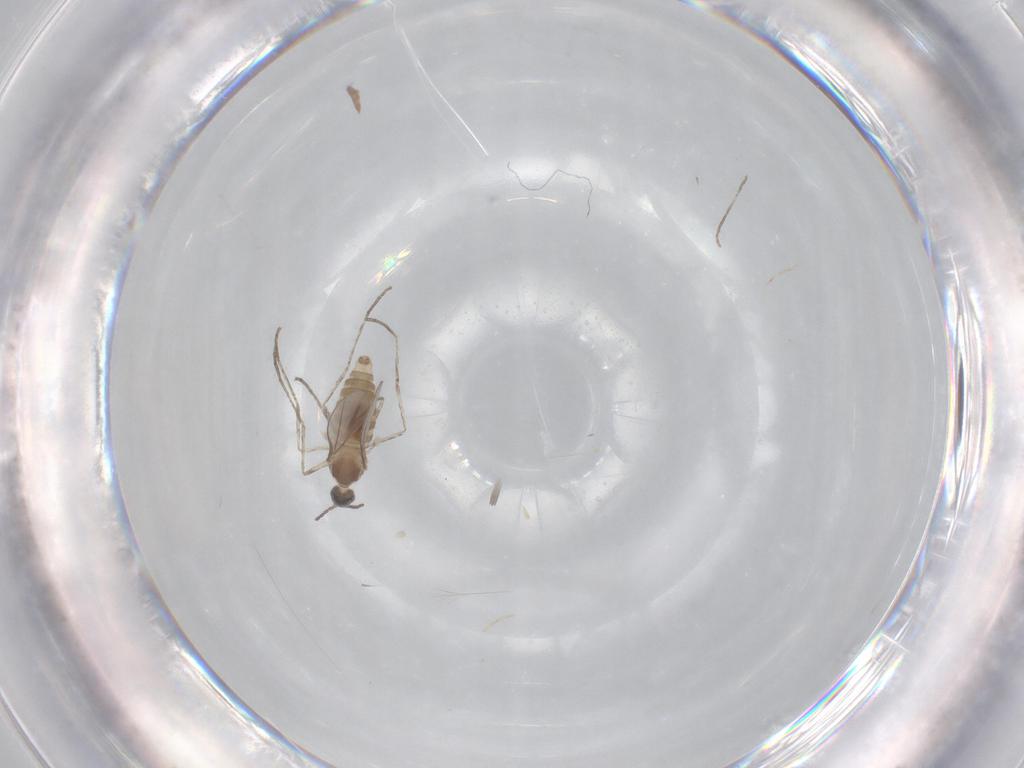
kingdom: Animalia
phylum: Arthropoda
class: Insecta
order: Diptera
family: Cecidomyiidae
